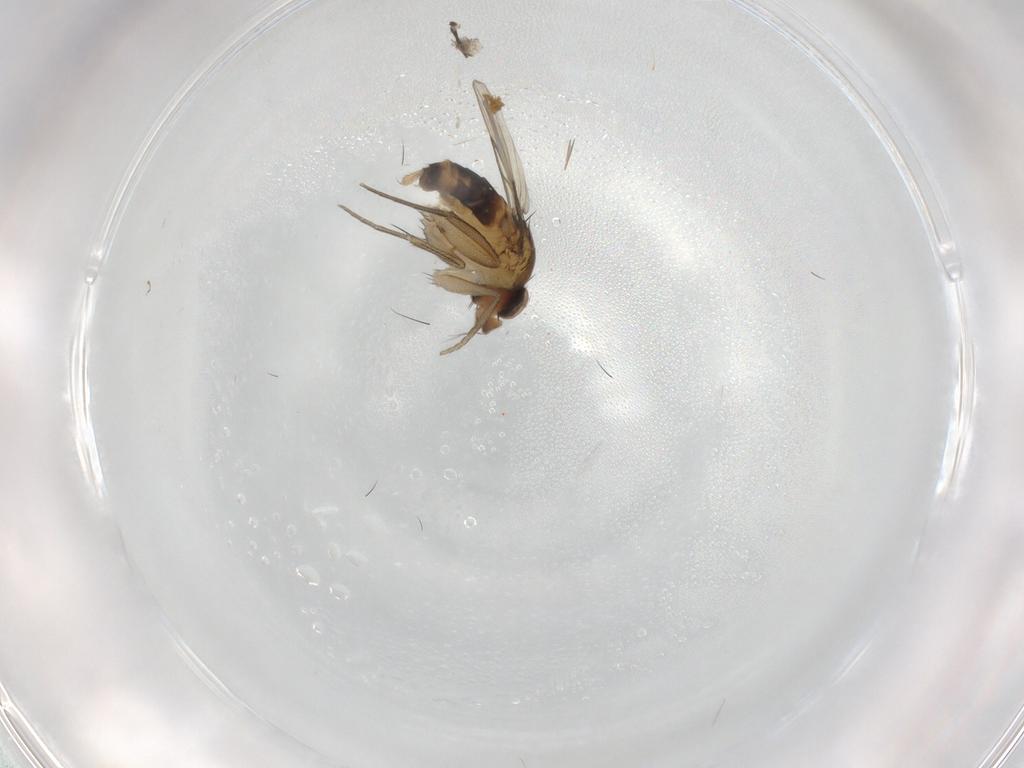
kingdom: Animalia
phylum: Arthropoda
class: Insecta
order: Diptera
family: Phoridae
